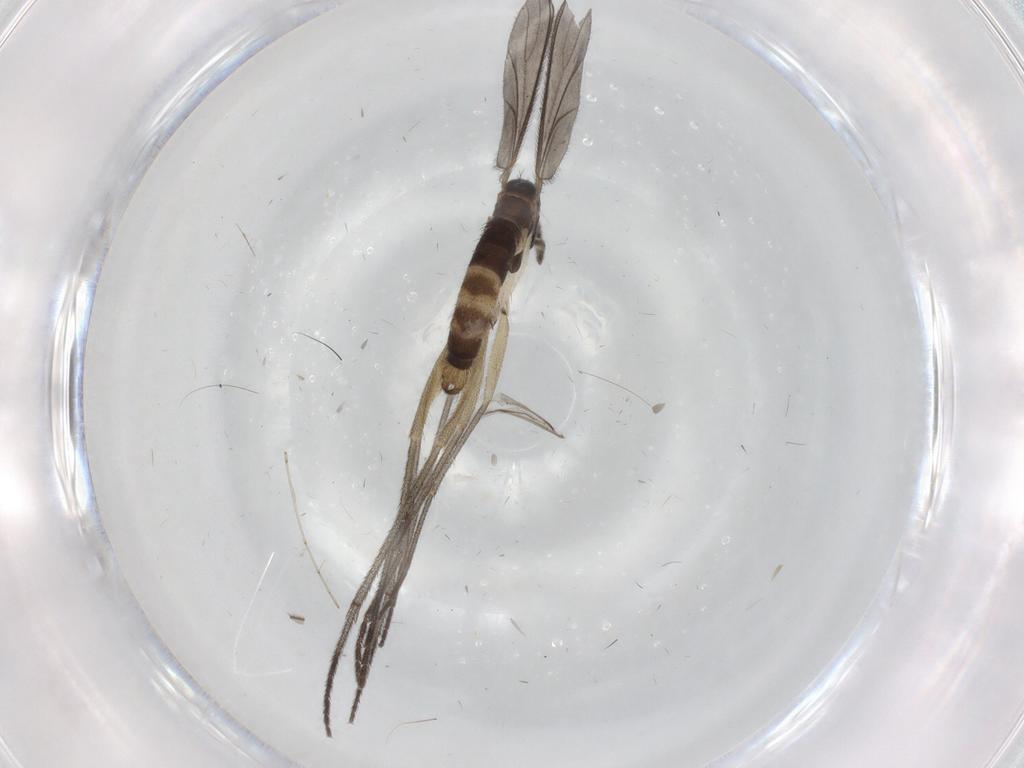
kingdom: Animalia
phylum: Arthropoda
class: Insecta
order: Diptera
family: Sciaridae
